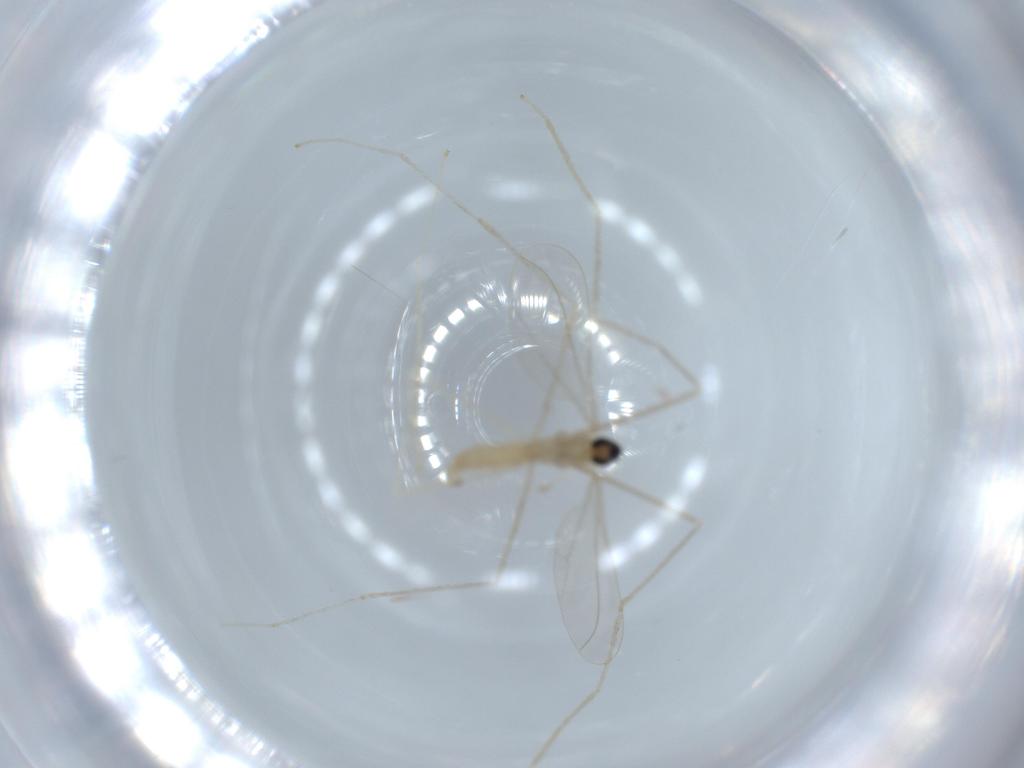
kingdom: Animalia
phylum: Arthropoda
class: Insecta
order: Diptera
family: Cecidomyiidae
